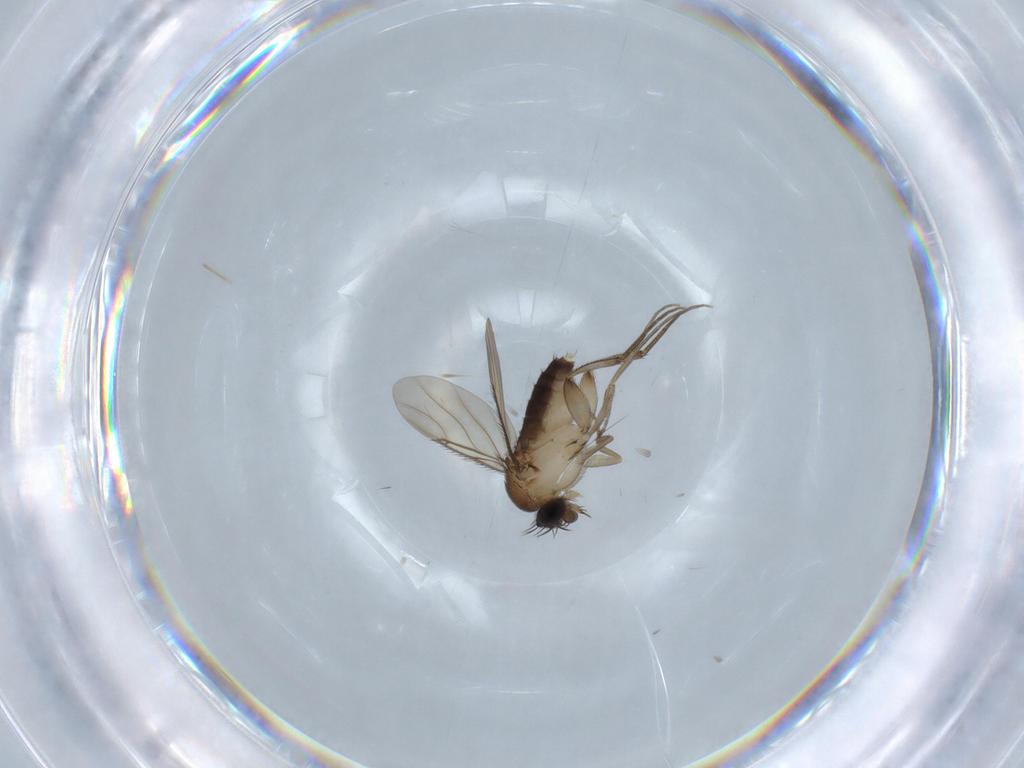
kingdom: Animalia
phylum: Arthropoda
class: Insecta
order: Diptera
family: Phoridae
